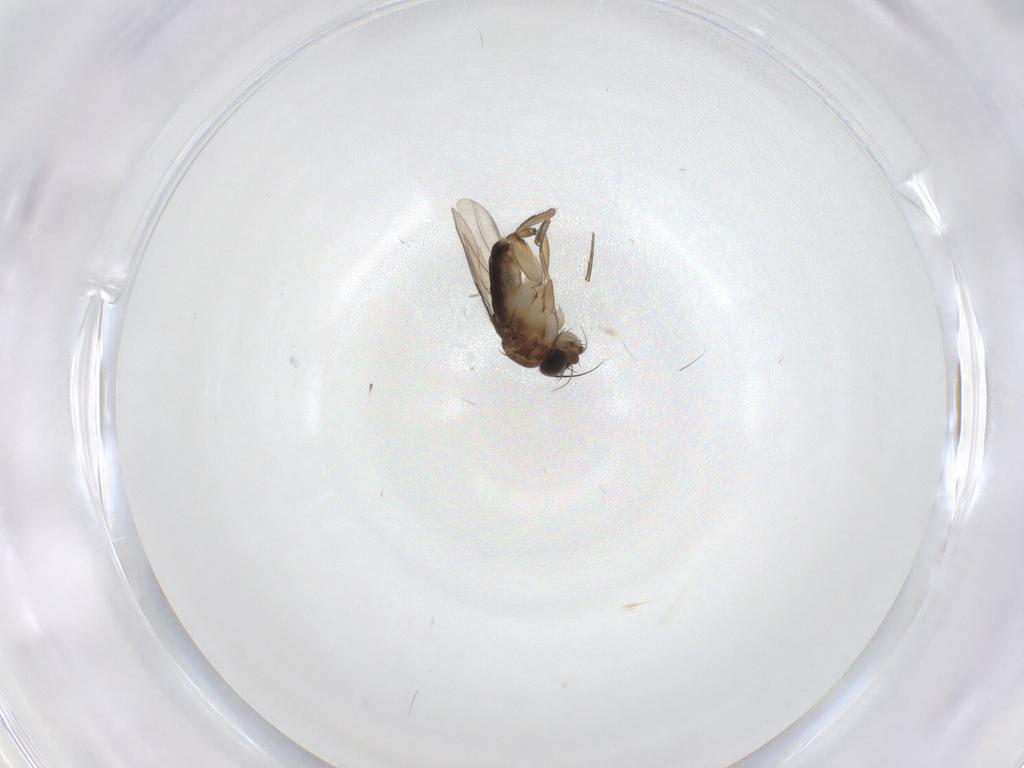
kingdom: Animalia
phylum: Arthropoda
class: Insecta
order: Diptera
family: Phoridae
